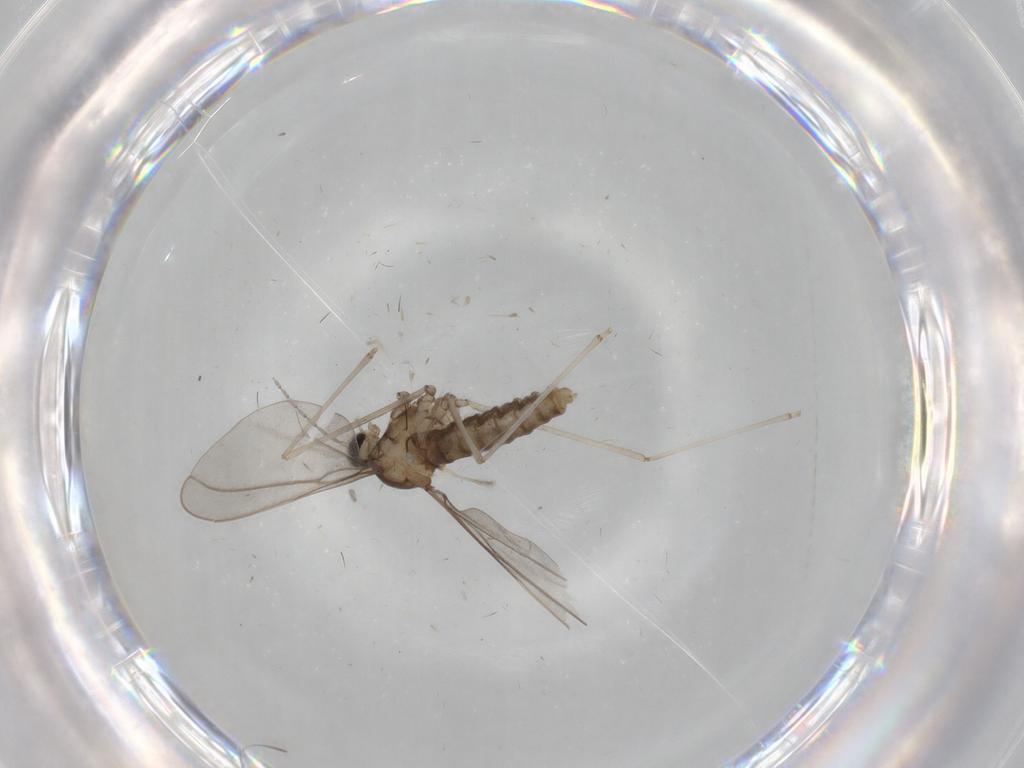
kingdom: Animalia
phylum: Arthropoda
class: Insecta
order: Diptera
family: Cecidomyiidae
